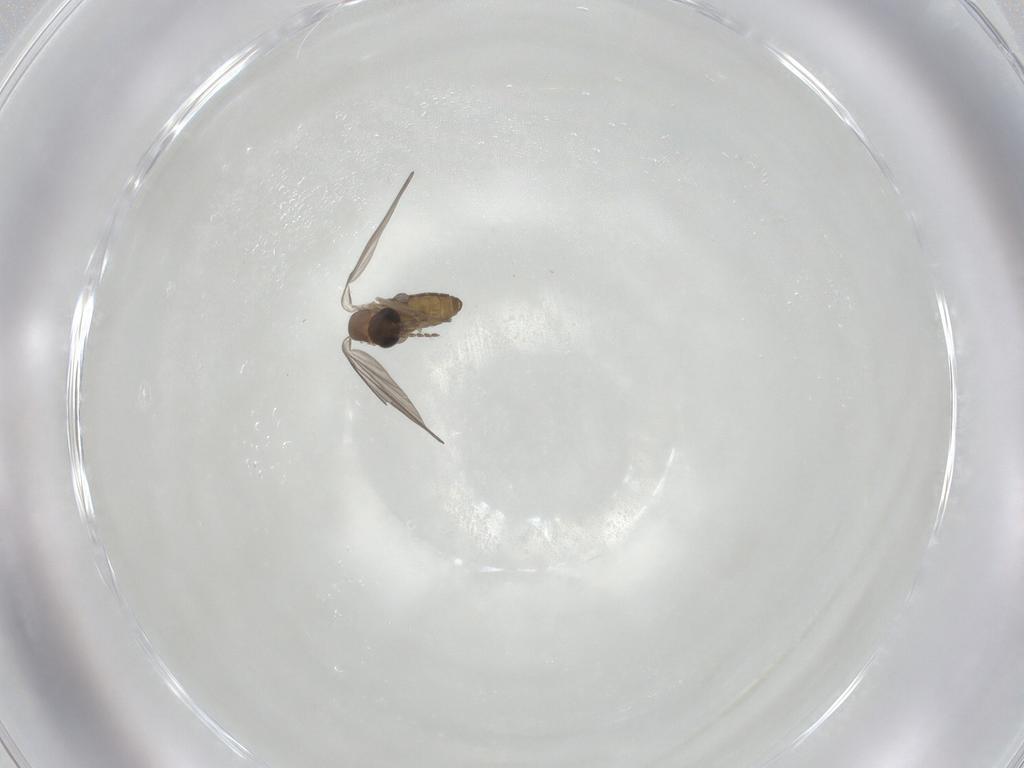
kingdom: Animalia
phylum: Arthropoda
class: Insecta
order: Diptera
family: Psychodidae
